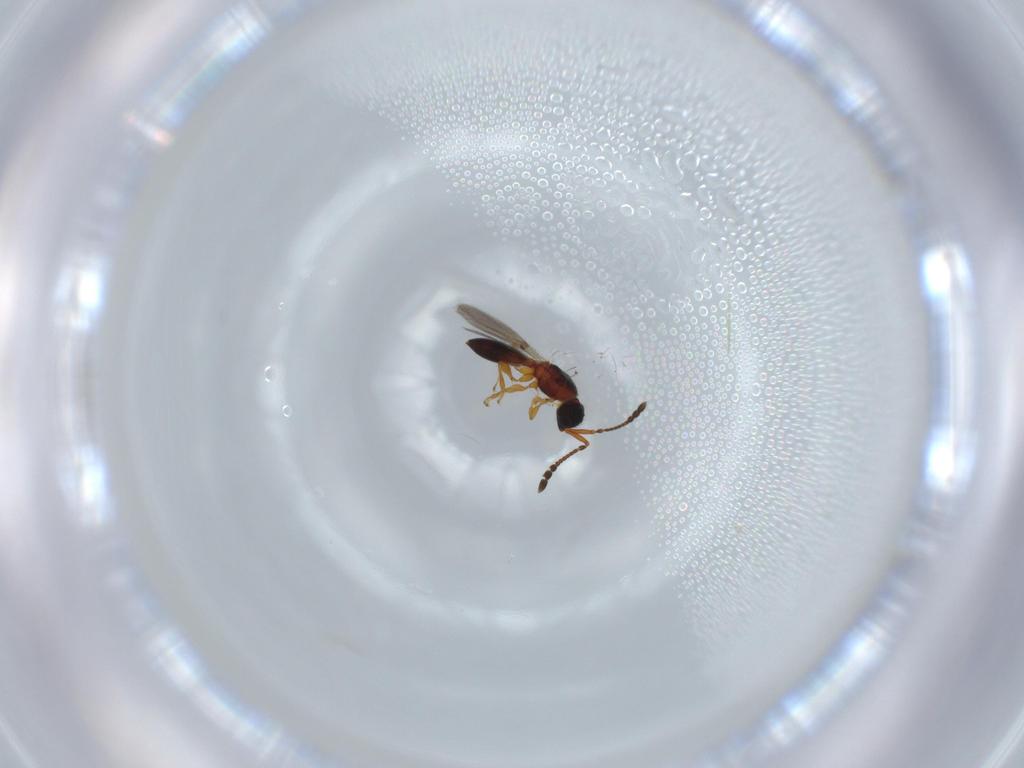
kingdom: Animalia
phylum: Arthropoda
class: Insecta
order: Hymenoptera
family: Diapriidae
